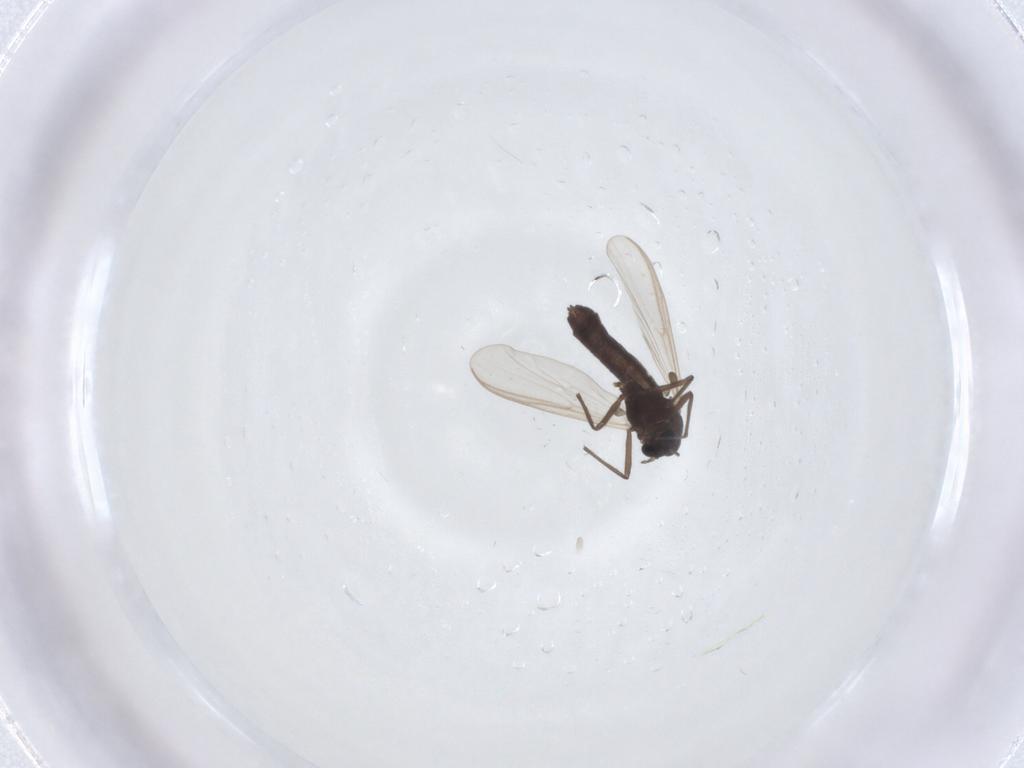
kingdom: Animalia
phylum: Arthropoda
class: Insecta
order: Diptera
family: Chironomidae
